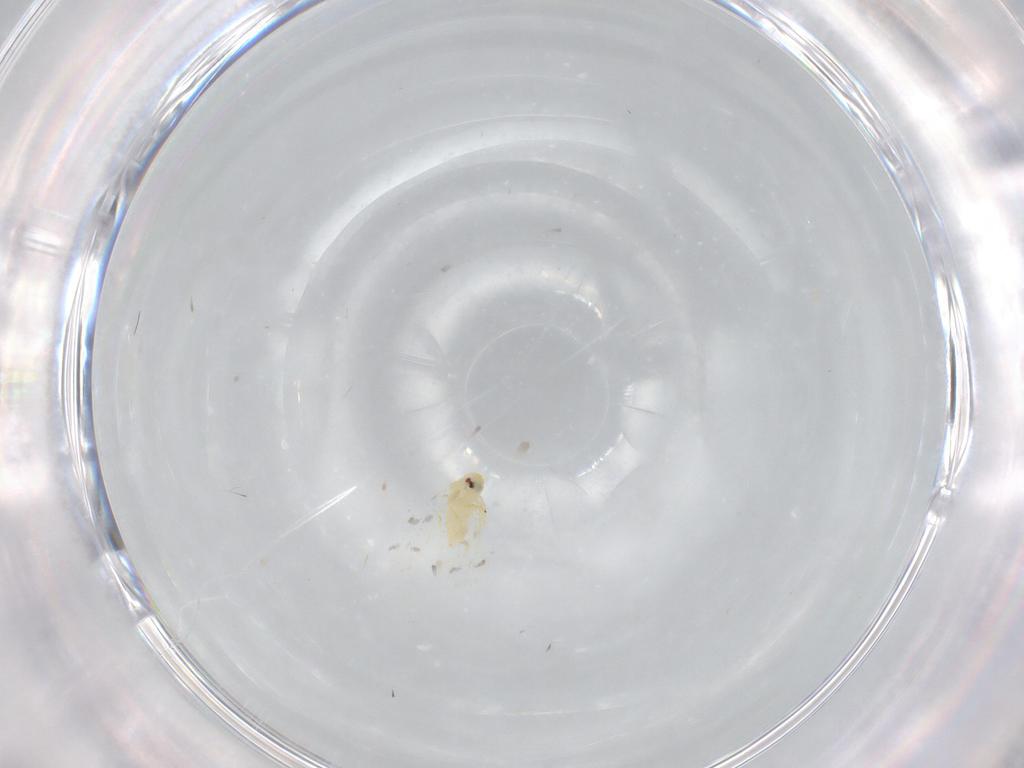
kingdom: Animalia
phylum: Arthropoda
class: Insecta
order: Hemiptera
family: Aleyrodidae
